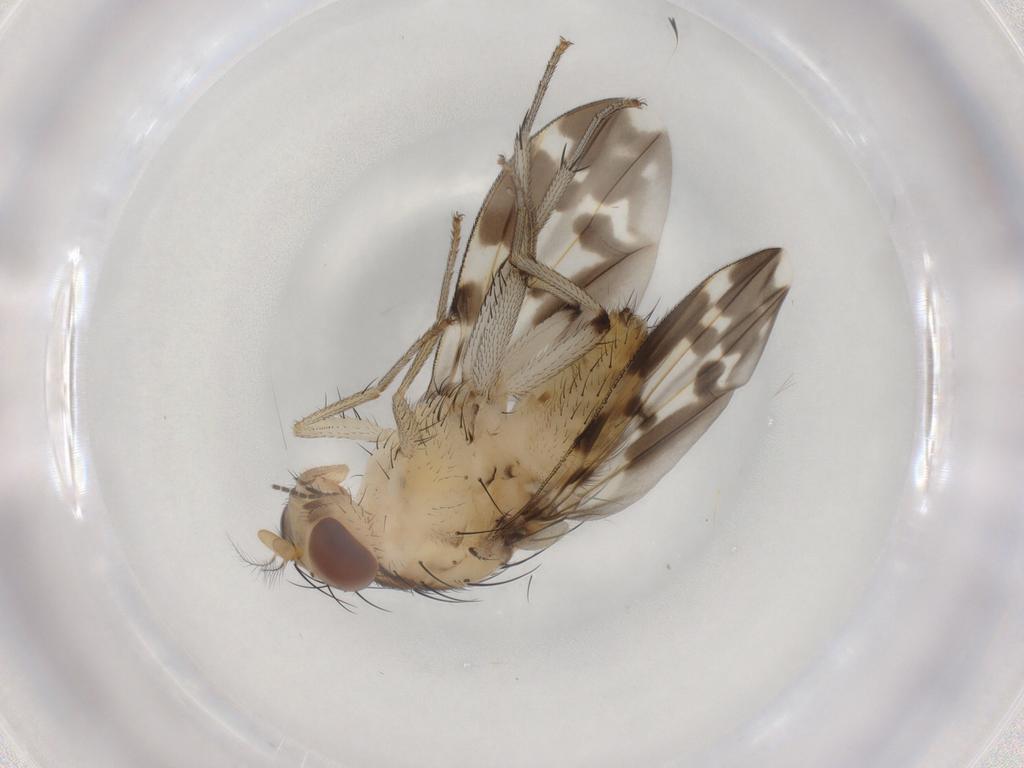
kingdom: Animalia
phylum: Arthropoda
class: Insecta
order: Diptera
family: Sciaridae
